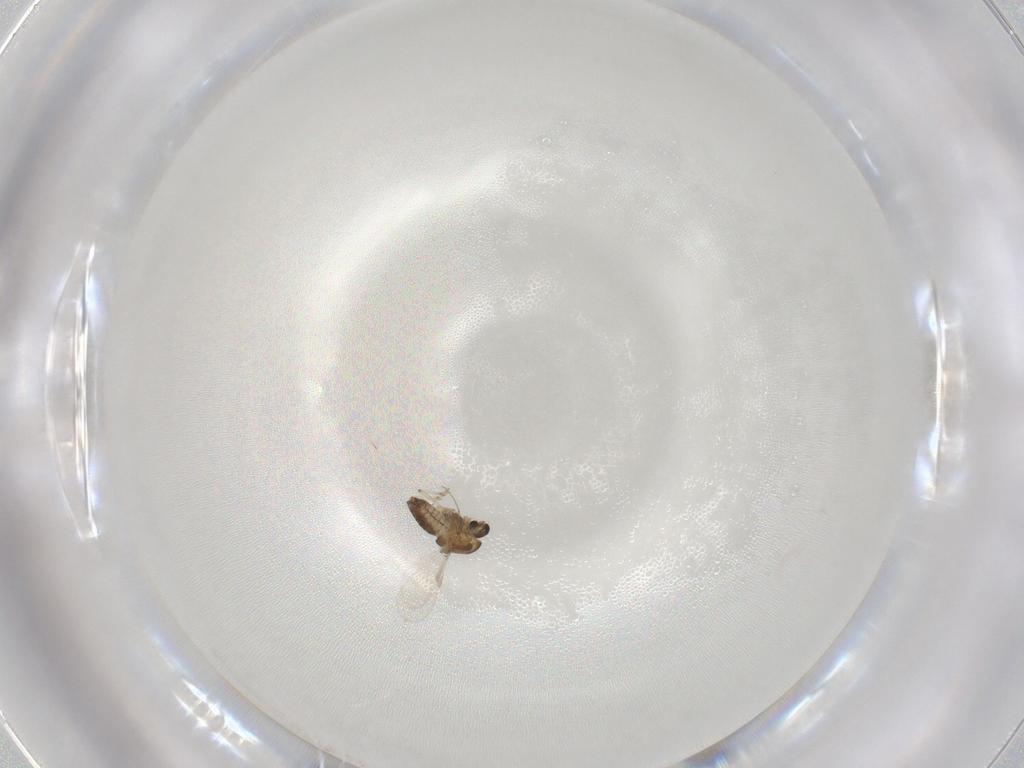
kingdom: Animalia
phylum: Arthropoda
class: Insecta
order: Diptera
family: Chironomidae
